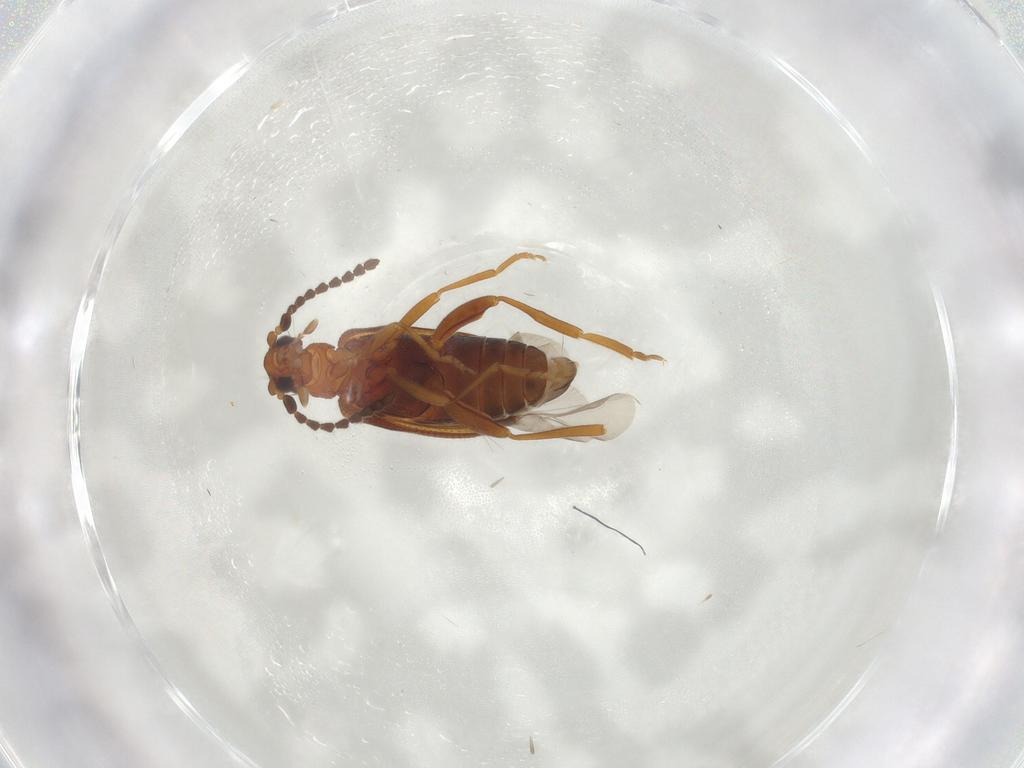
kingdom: Animalia
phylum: Arthropoda
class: Insecta
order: Coleoptera
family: Aderidae
